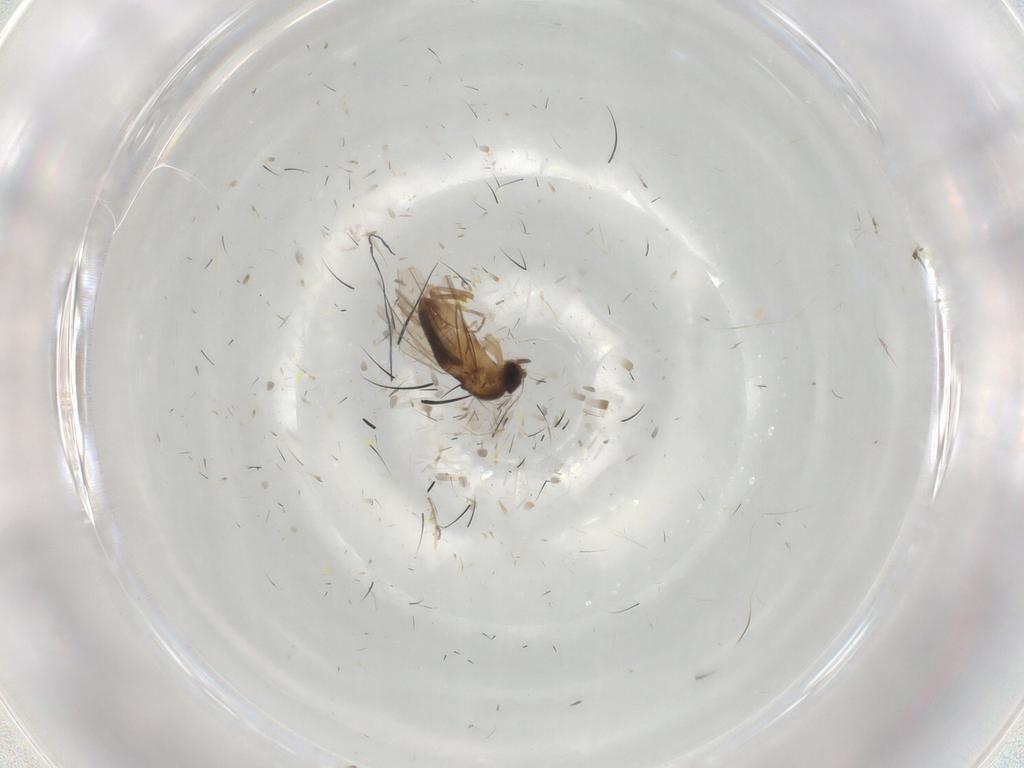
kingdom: Animalia
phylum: Arthropoda
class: Insecta
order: Diptera
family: Sciaridae
